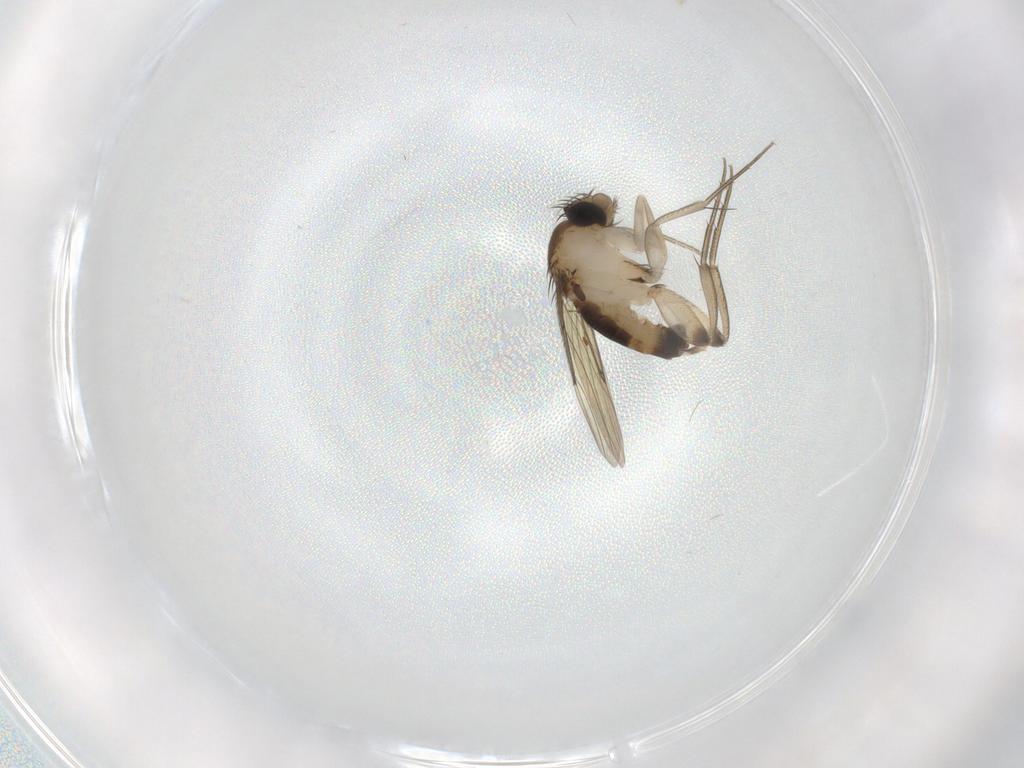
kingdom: Animalia
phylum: Arthropoda
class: Insecta
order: Diptera
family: Phoridae
